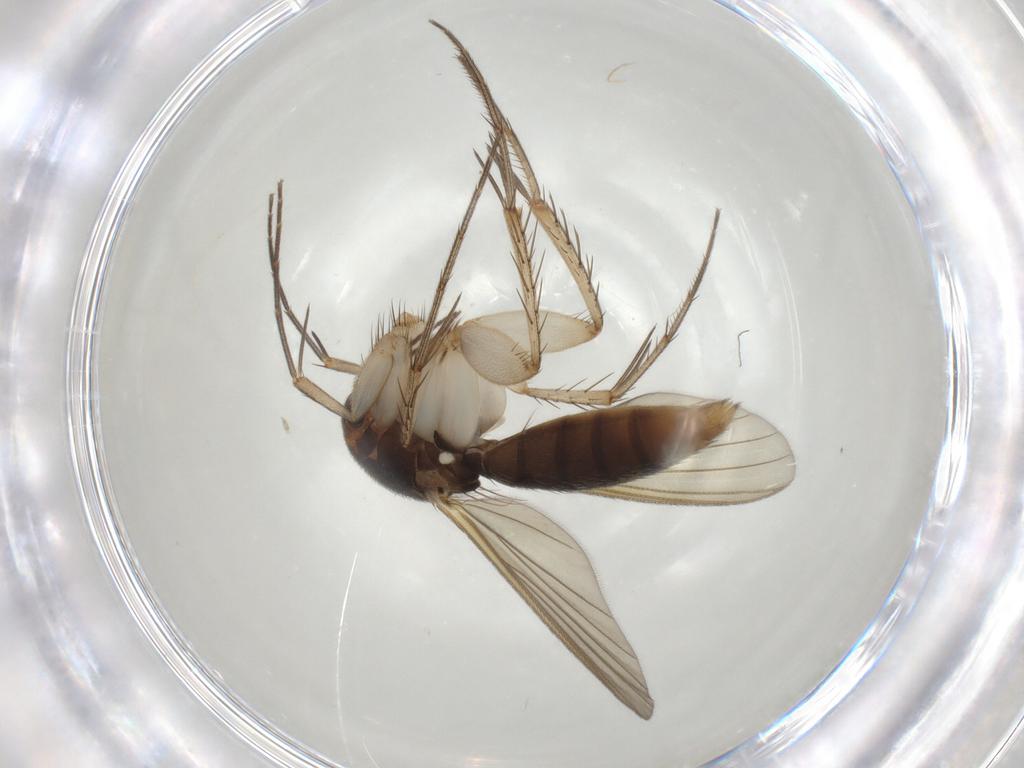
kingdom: Animalia
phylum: Arthropoda
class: Insecta
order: Diptera
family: Mycetophilidae
